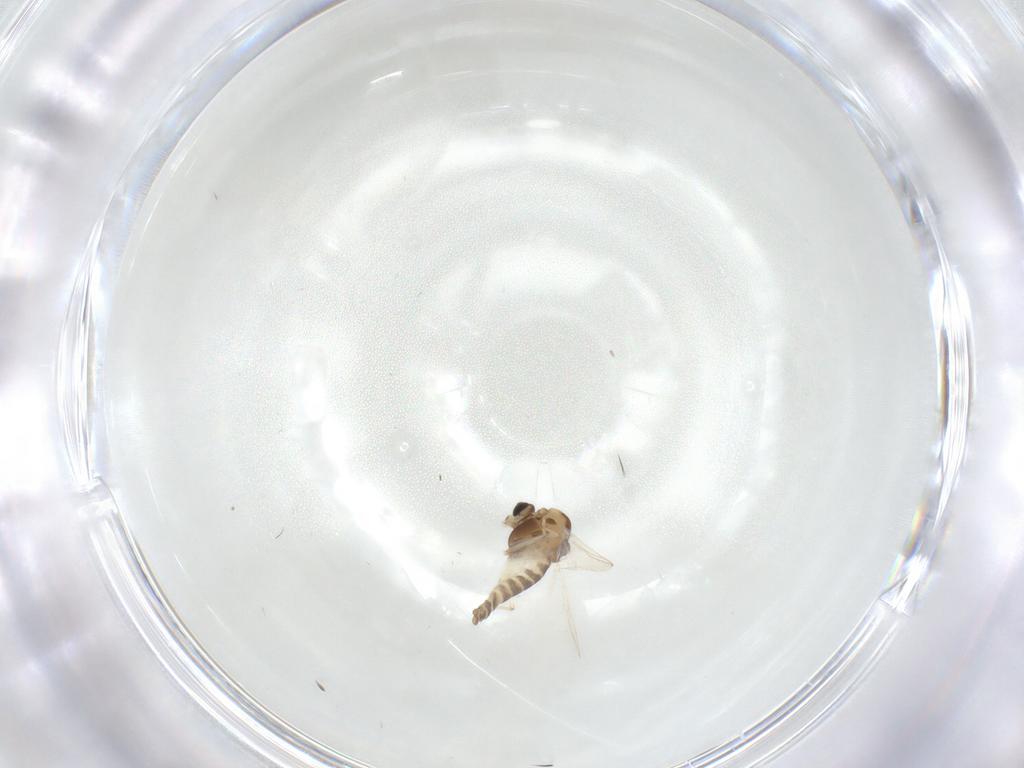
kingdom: Animalia
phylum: Arthropoda
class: Insecta
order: Diptera
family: Chironomidae
